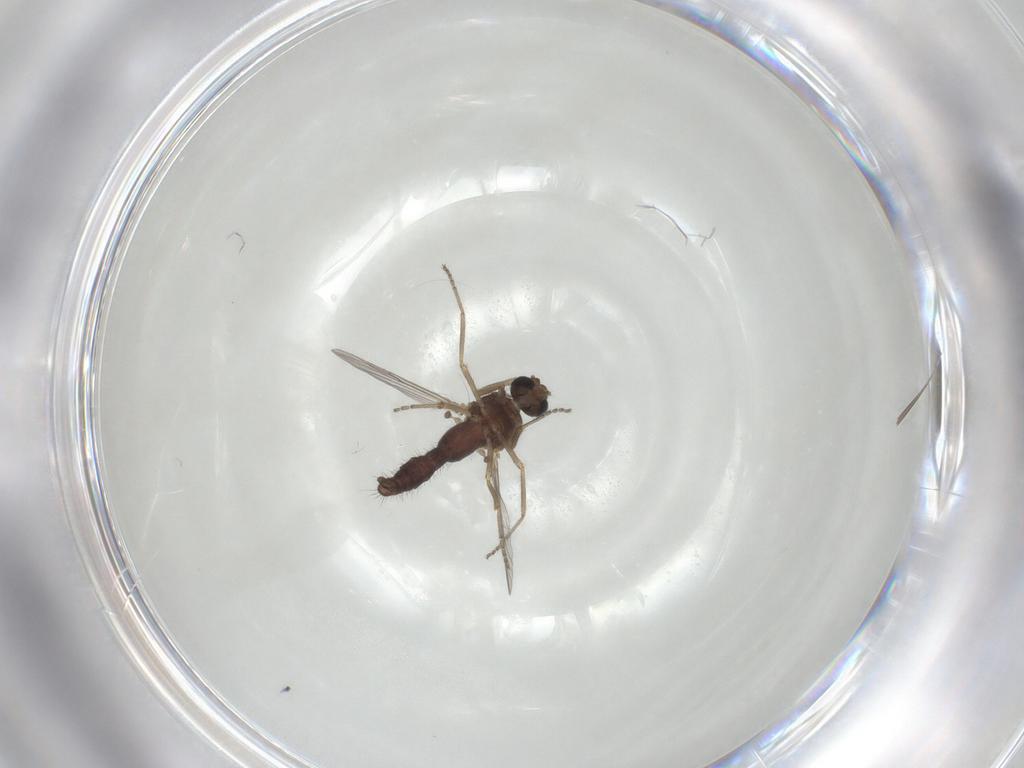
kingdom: Animalia
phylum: Arthropoda
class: Insecta
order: Diptera
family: Ceratopogonidae
